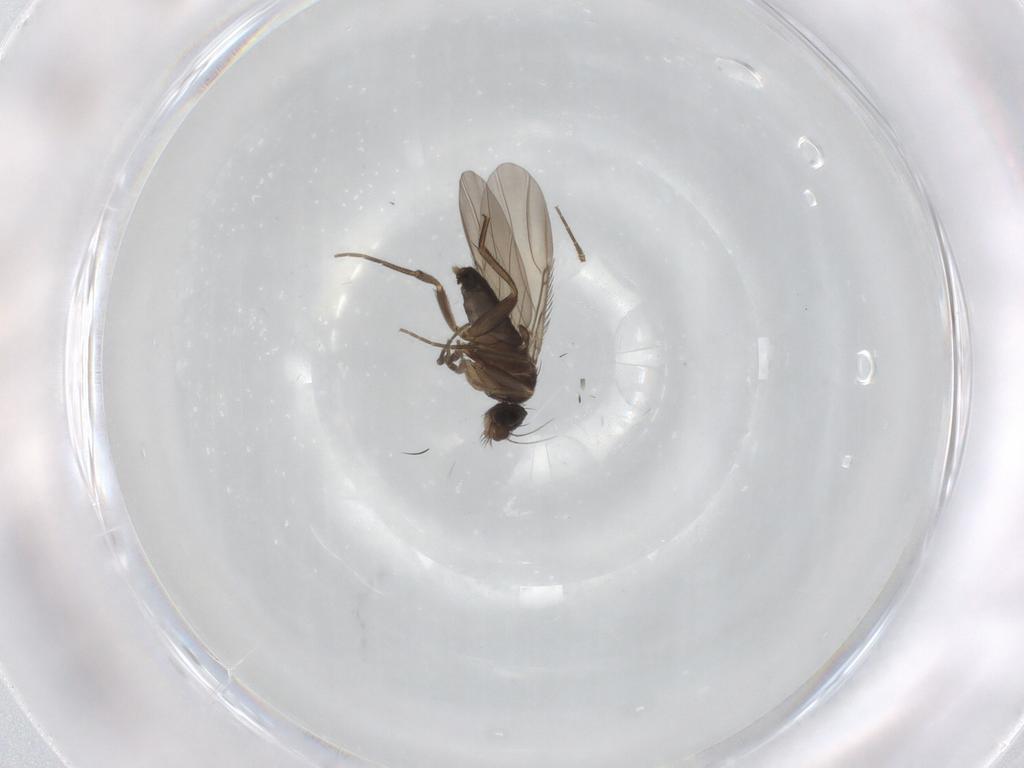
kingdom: Animalia
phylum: Arthropoda
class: Insecta
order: Diptera
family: Phoridae
